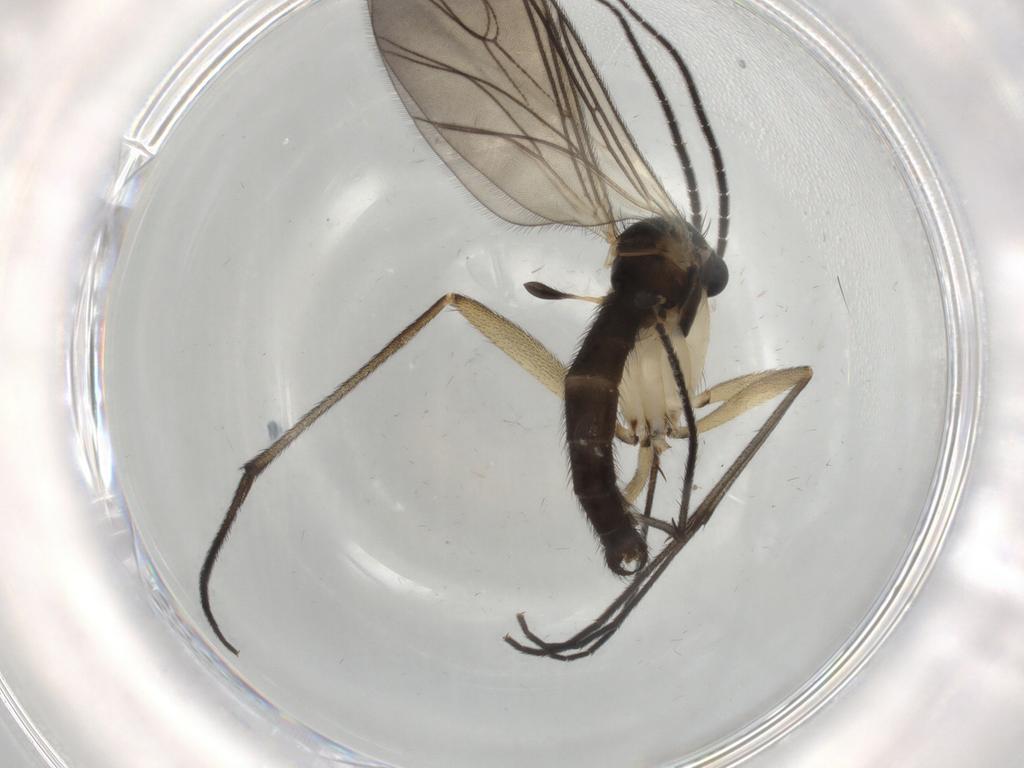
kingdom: Animalia
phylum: Arthropoda
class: Insecta
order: Diptera
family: Sciaridae
